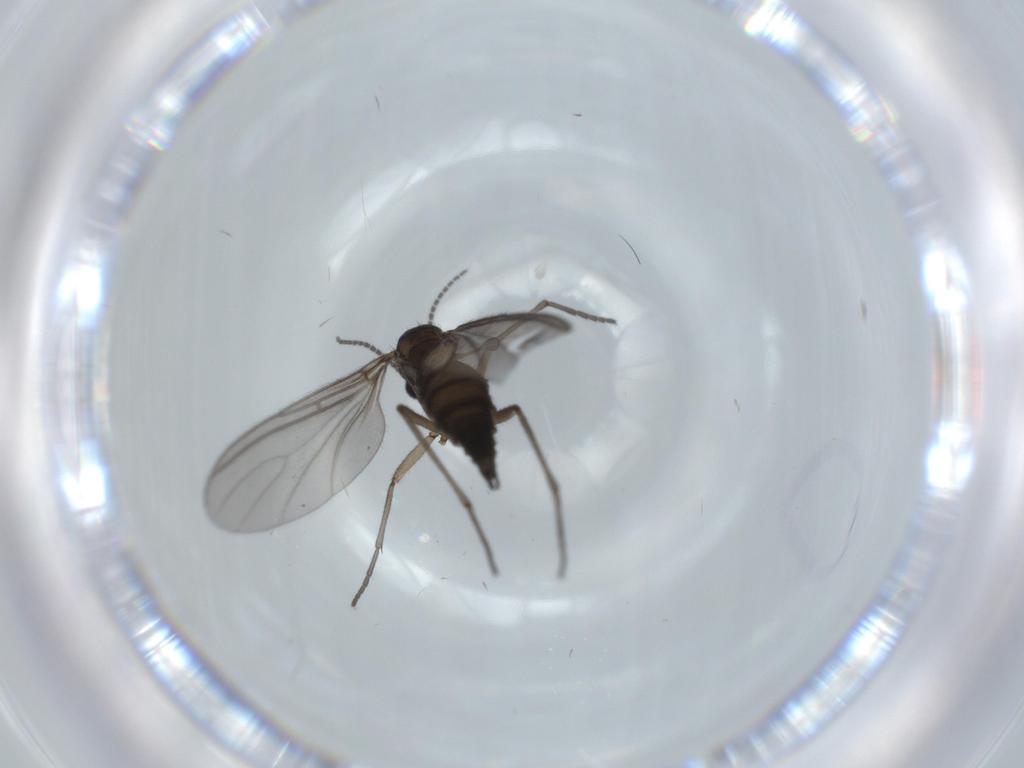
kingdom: Animalia
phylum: Arthropoda
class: Insecta
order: Diptera
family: Sciaridae
